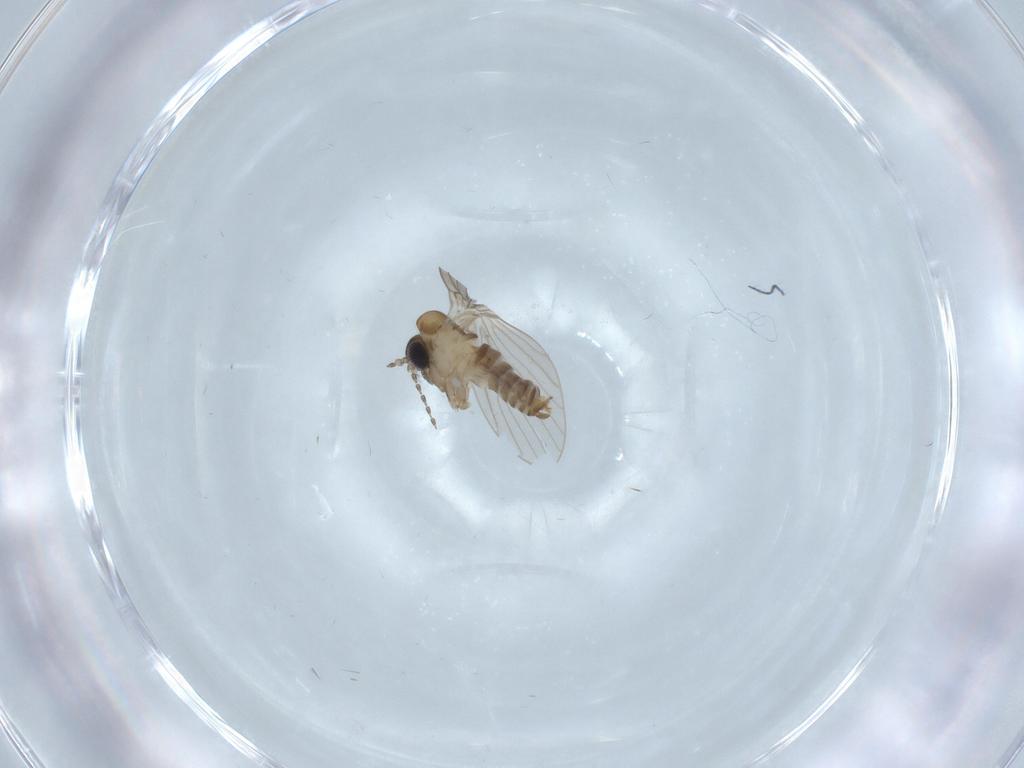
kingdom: Animalia
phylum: Arthropoda
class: Insecta
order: Diptera
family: Psychodidae
